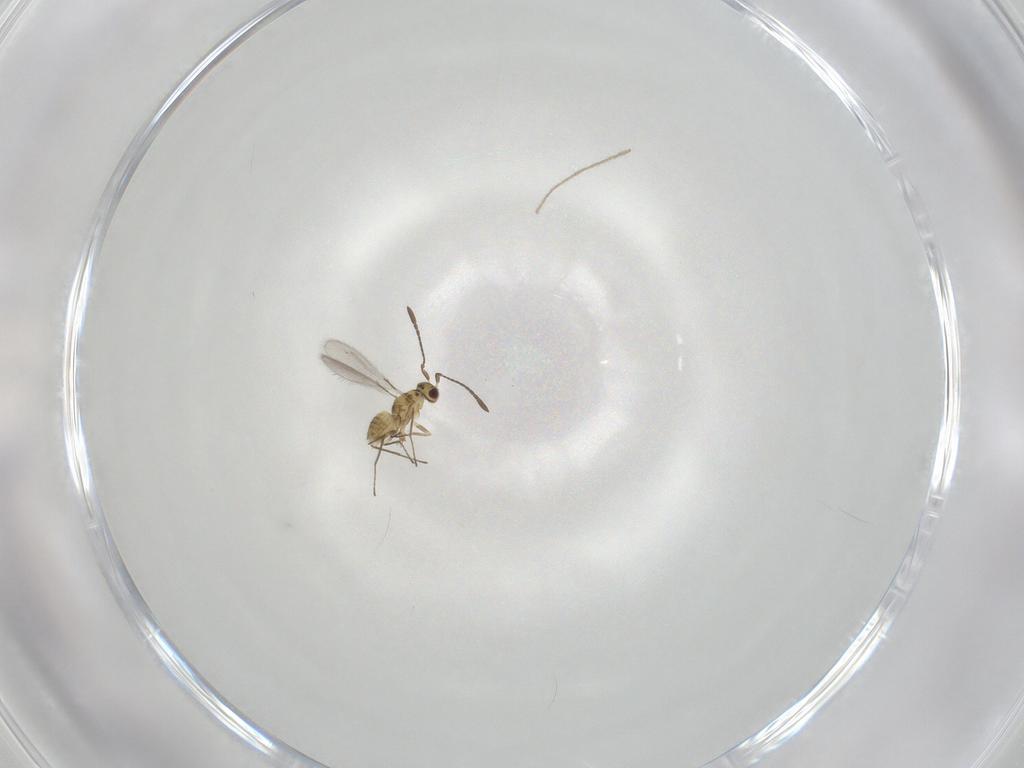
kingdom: Animalia
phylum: Arthropoda
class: Insecta
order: Hymenoptera
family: Mymaridae
